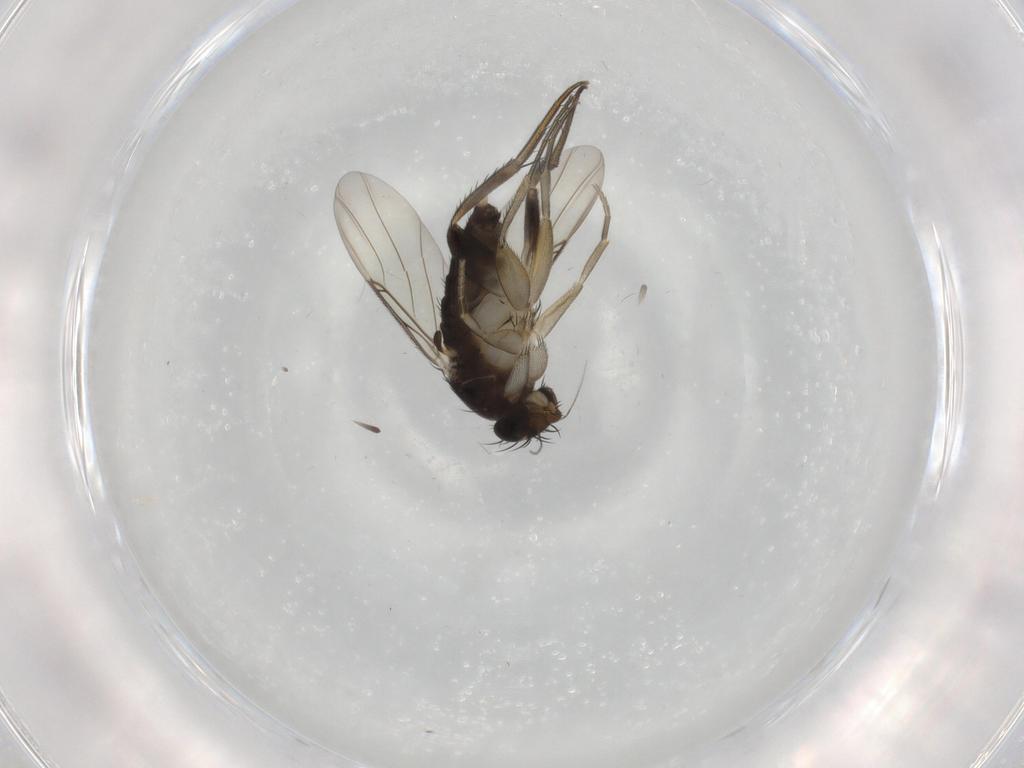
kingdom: Animalia
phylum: Arthropoda
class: Insecta
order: Diptera
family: Phoridae
